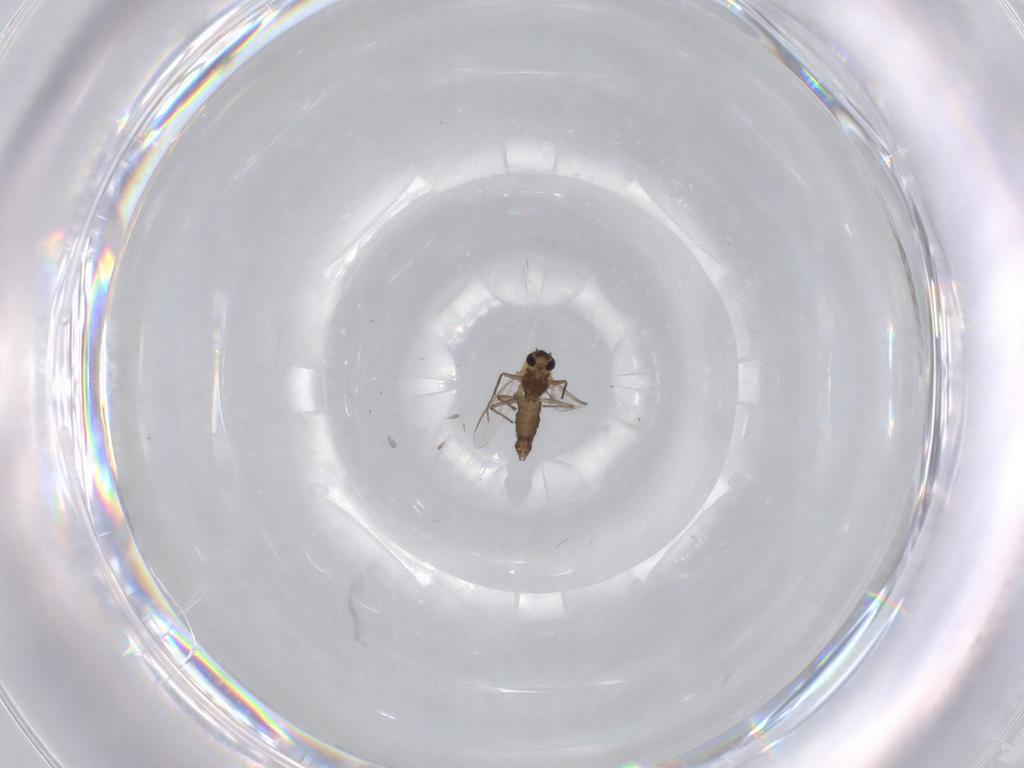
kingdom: Animalia
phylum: Arthropoda
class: Insecta
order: Diptera
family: Chironomidae
